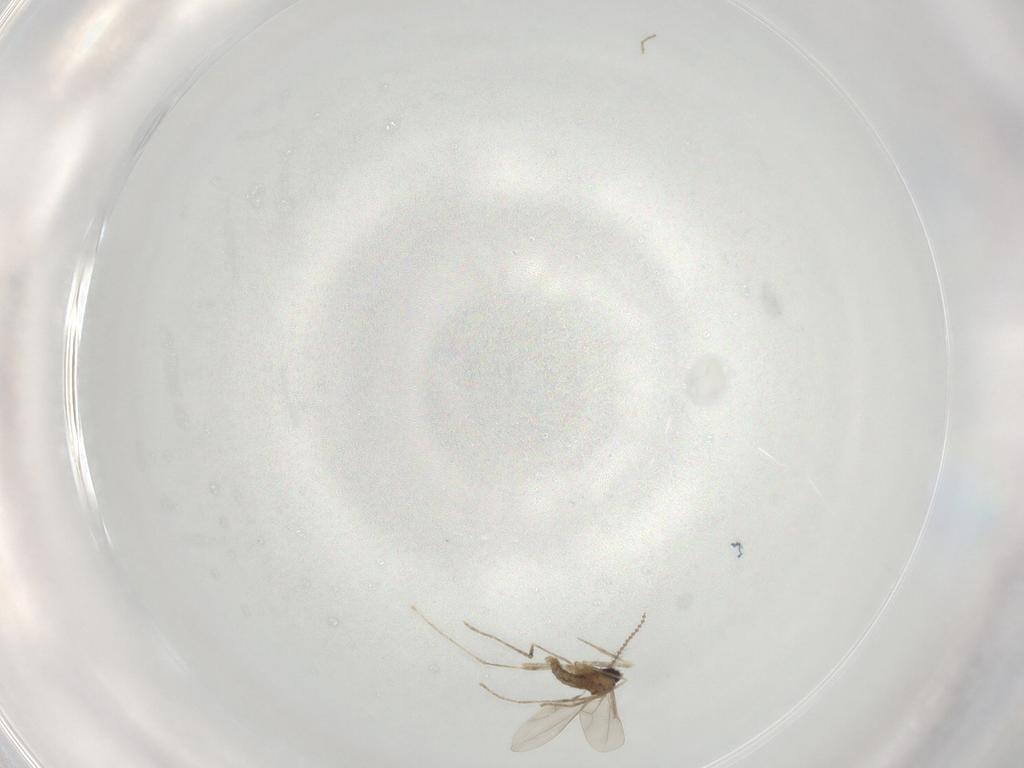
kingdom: Animalia
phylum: Arthropoda
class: Insecta
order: Diptera
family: Cecidomyiidae
